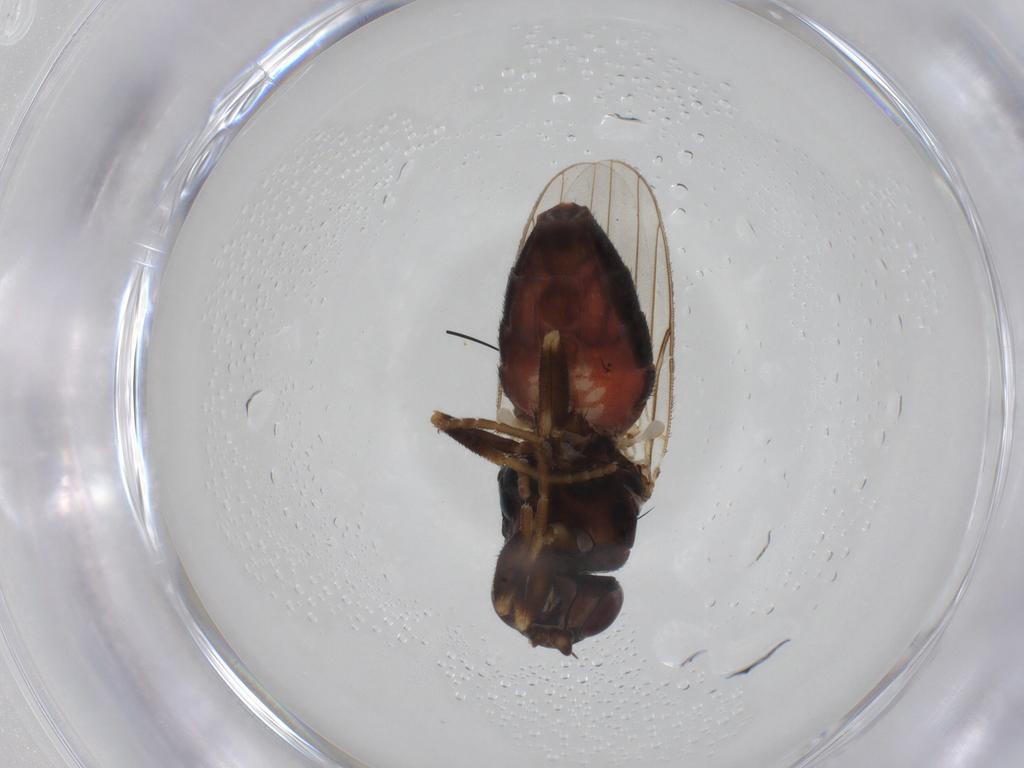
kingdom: Animalia
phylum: Arthropoda
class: Insecta
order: Diptera
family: Chloropidae
